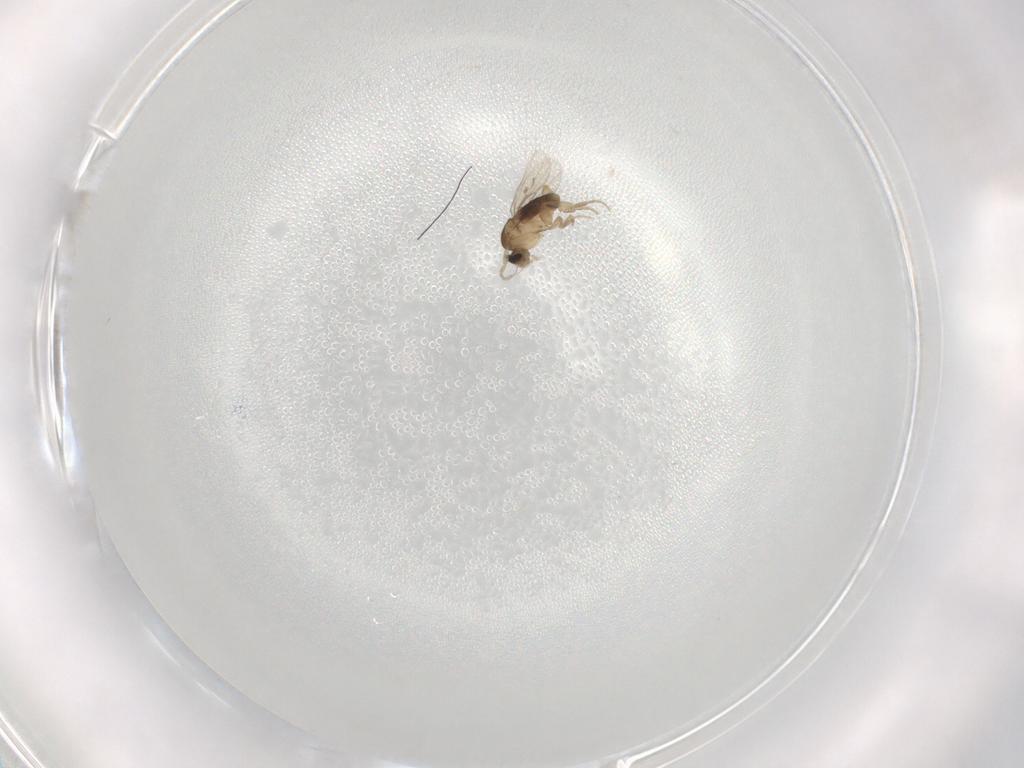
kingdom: Animalia
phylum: Arthropoda
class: Insecta
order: Diptera
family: Phoridae
